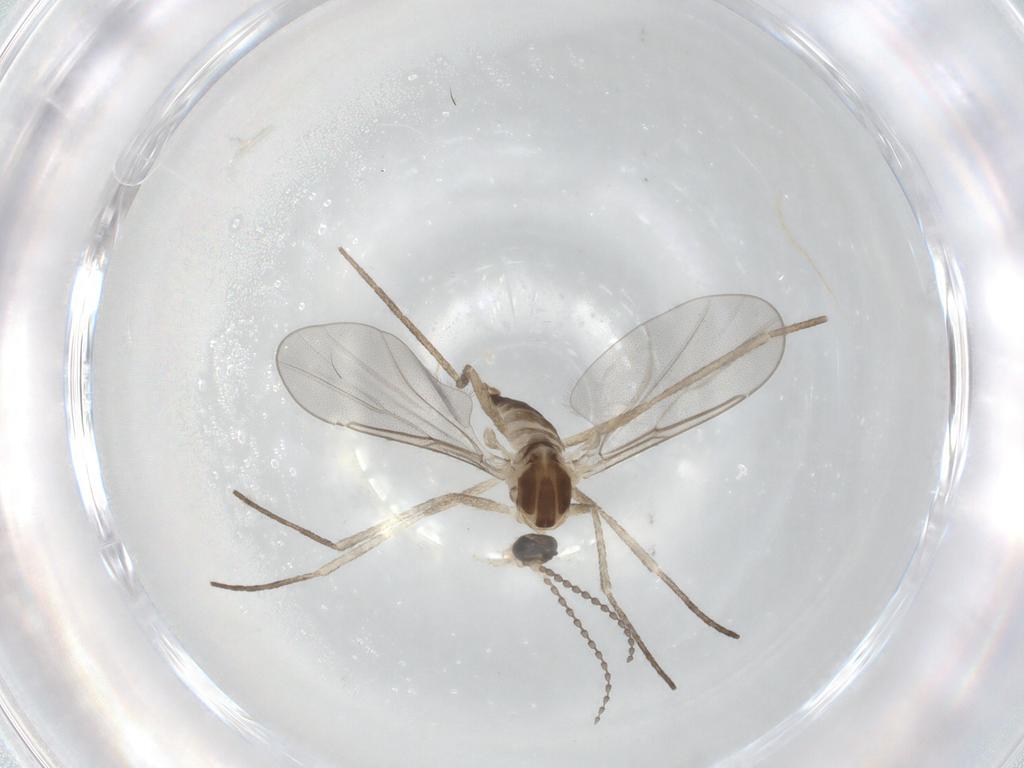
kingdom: Animalia
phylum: Arthropoda
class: Insecta
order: Diptera
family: Cecidomyiidae
